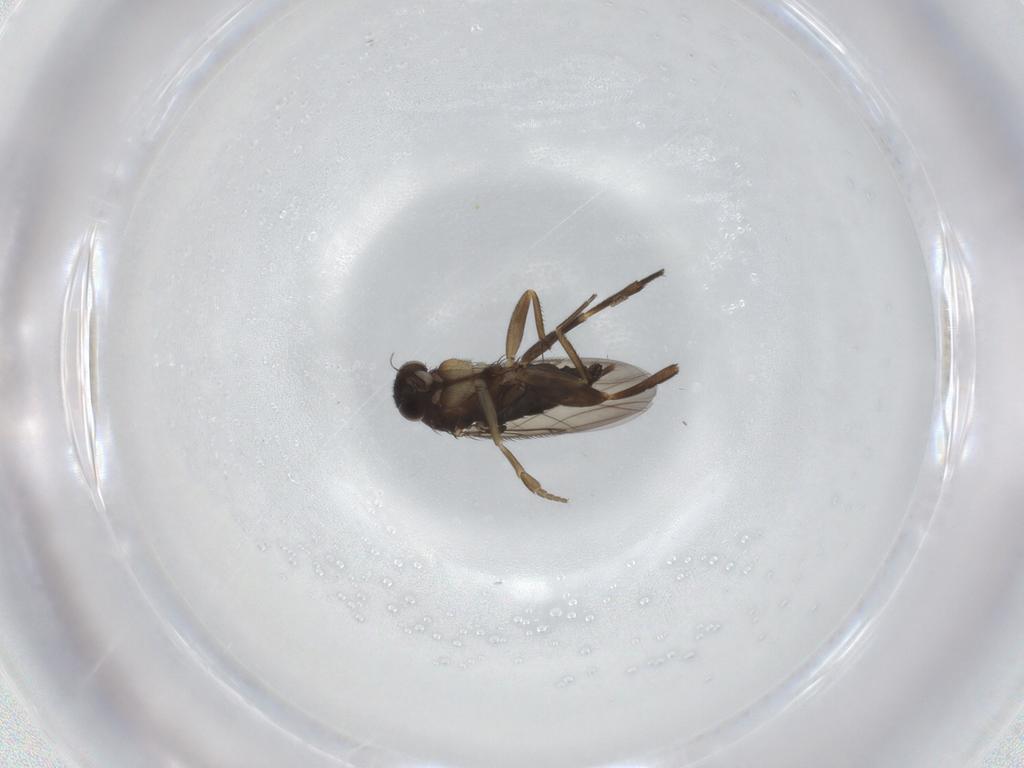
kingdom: Animalia
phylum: Arthropoda
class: Insecta
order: Diptera
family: Phoridae
